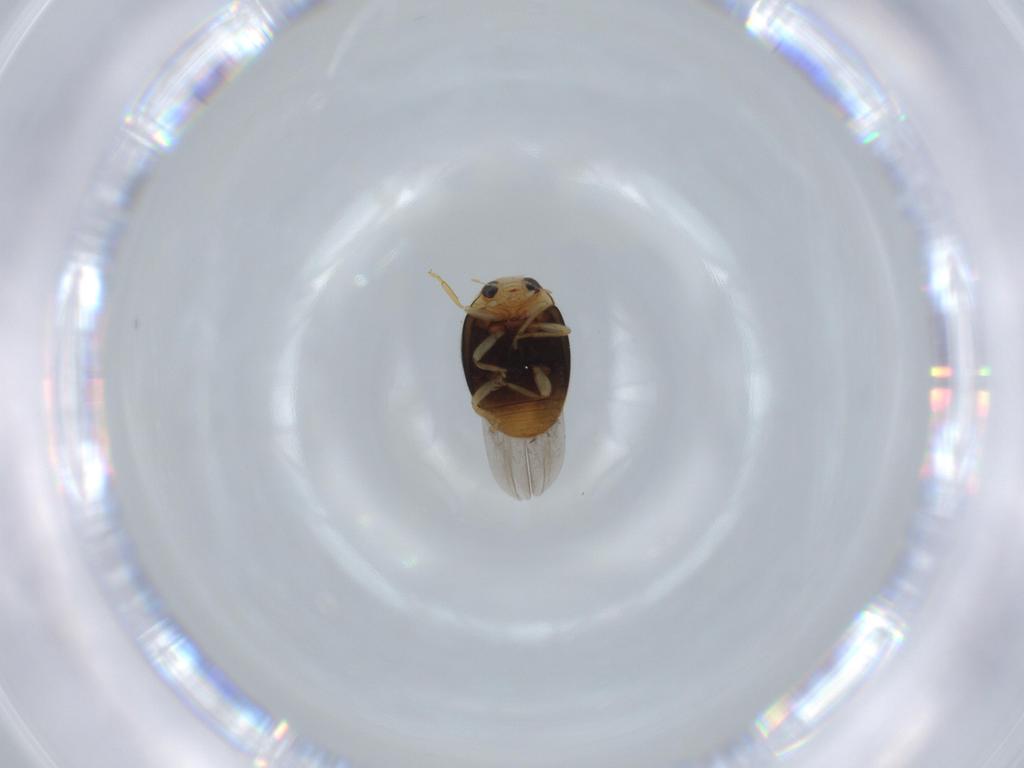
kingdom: Animalia
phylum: Arthropoda
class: Insecta
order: Coleoptera
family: Coccinellidae
